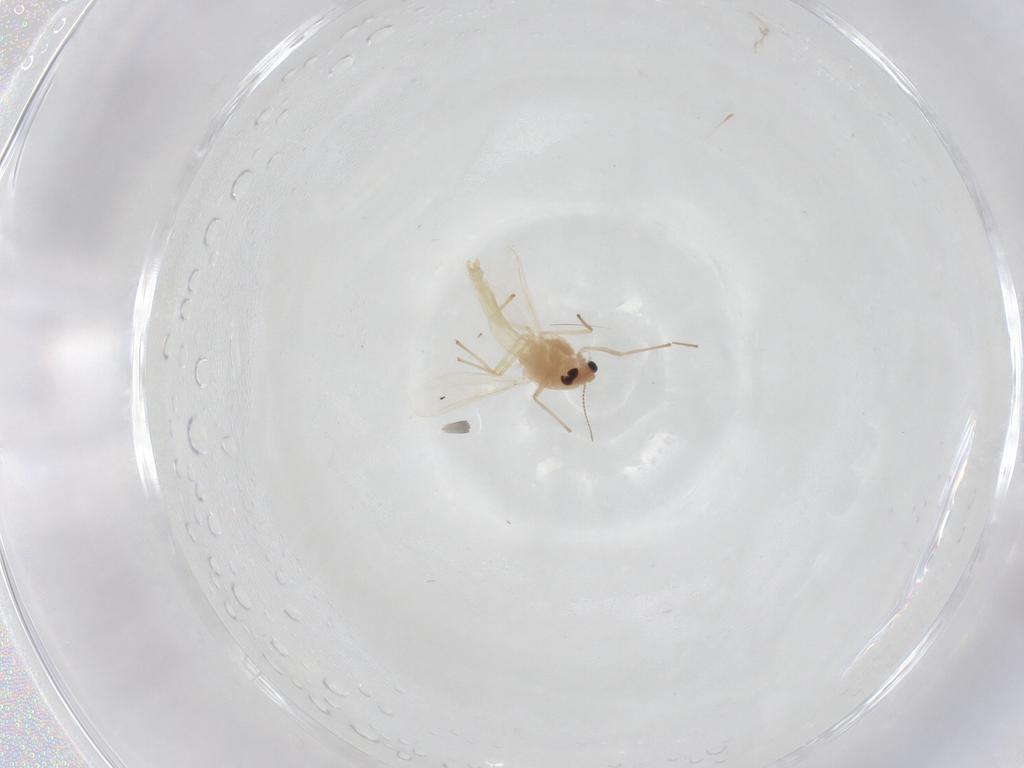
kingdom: Animalia
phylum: Arthropoda
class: Insecta
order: Diptera
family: Chironomidae
